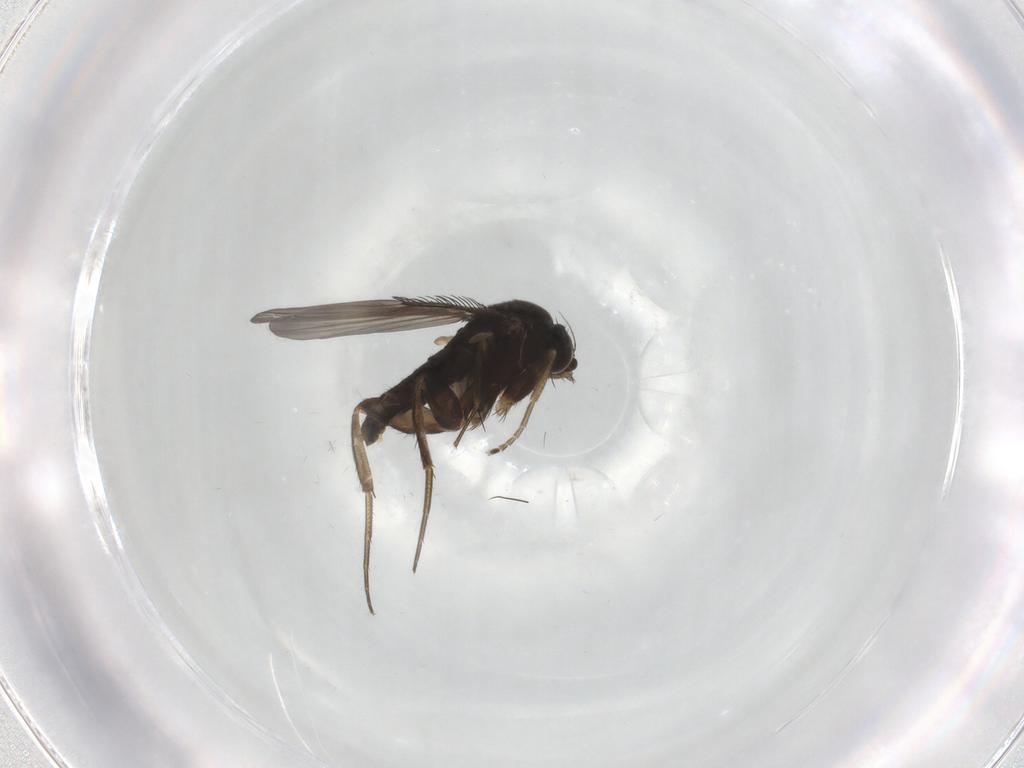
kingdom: Animalia
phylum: Arthropoda
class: Insecta
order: Diptera
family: Phoridae
